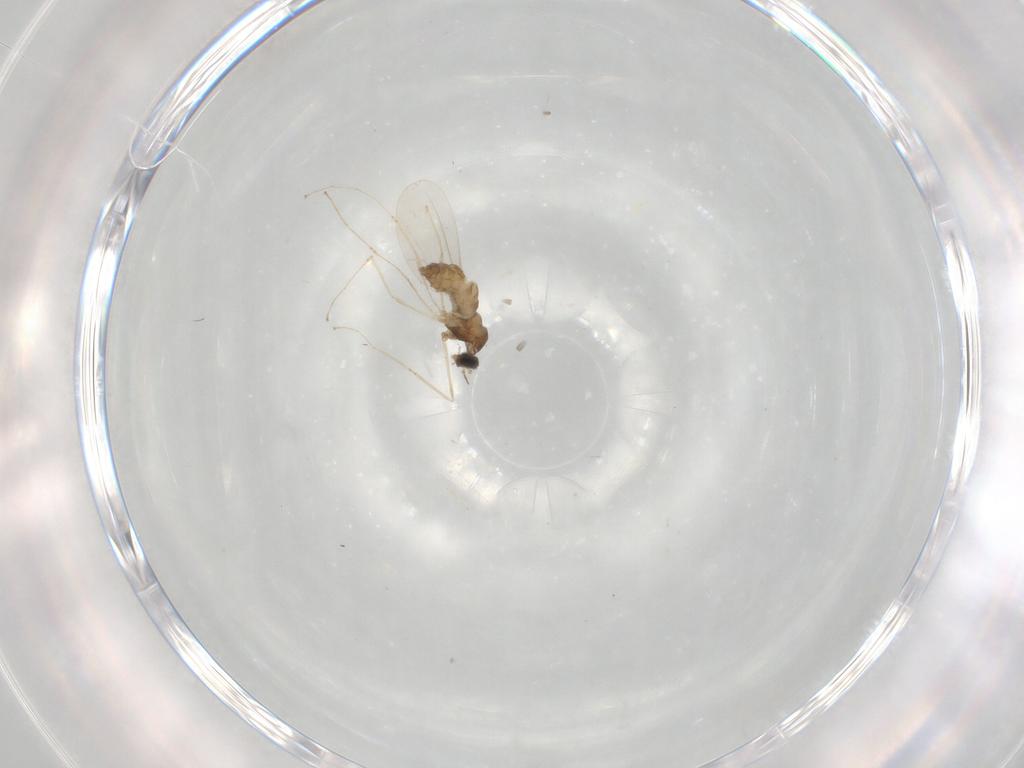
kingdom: Animalia
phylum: Arthropoda
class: Insecta
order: Diptera
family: Cecidomyiidae
